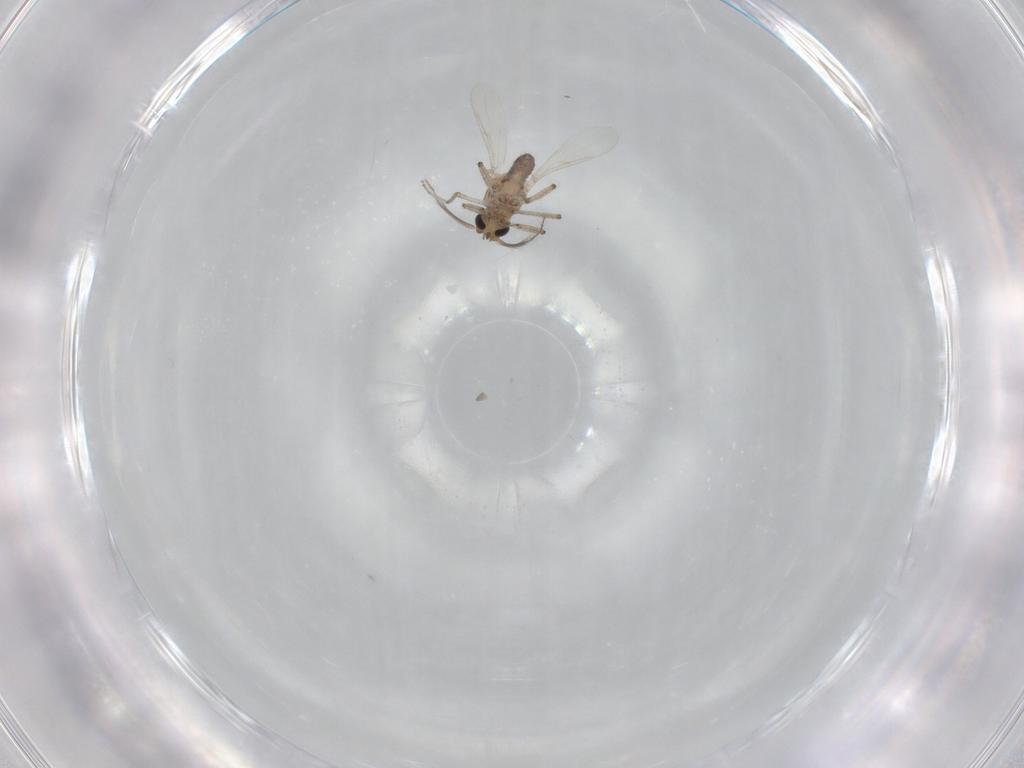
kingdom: Animalia
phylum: Arthropoda
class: Insecta
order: Diptera
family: Ceratopogonidae
